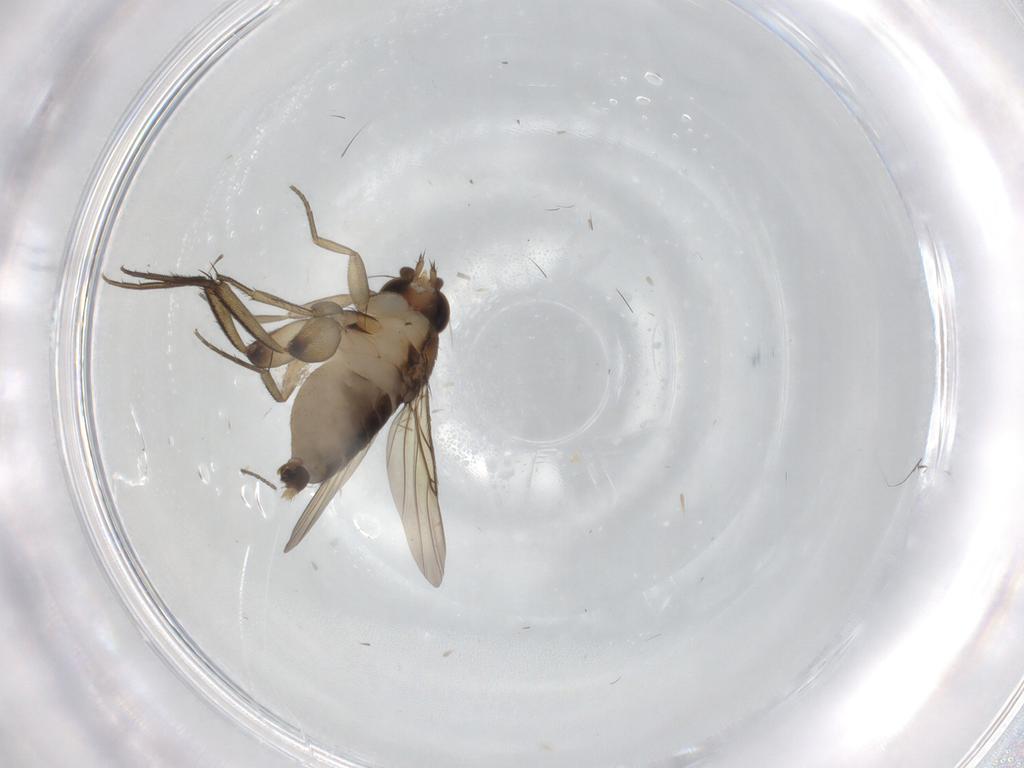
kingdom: Animalia
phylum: Arthropoda
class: Insecta
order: Diptera
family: Phoridae
